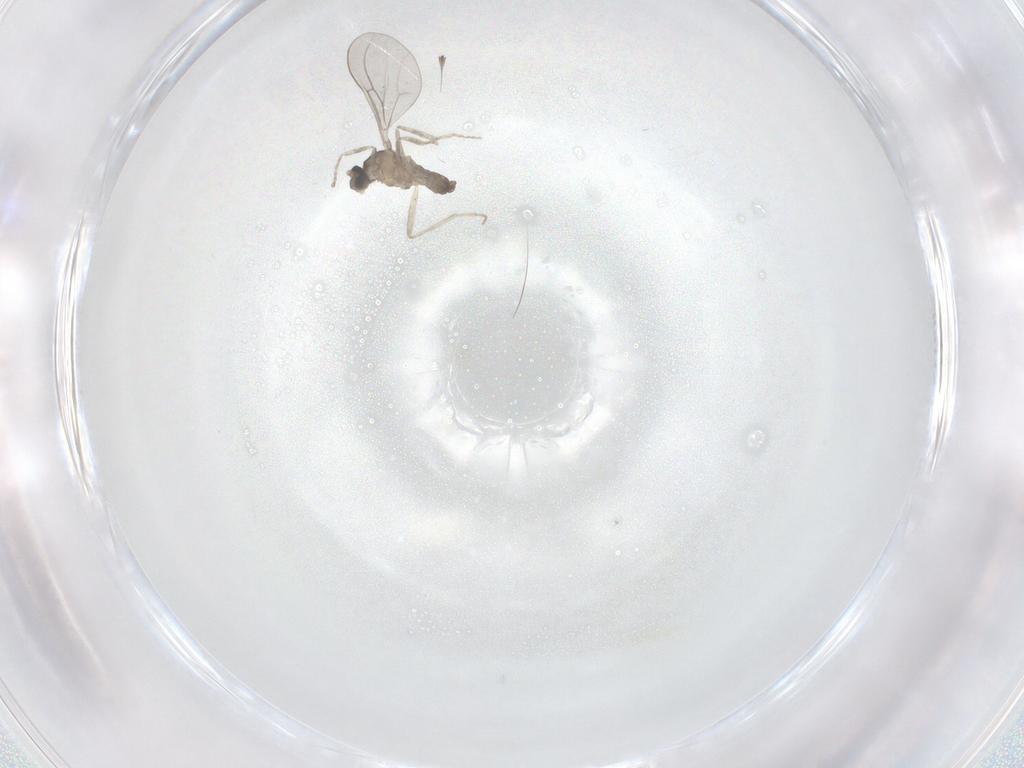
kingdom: Animalia
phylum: Arthropoda
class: Insecta
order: Diptera
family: Cecidomyiidae
